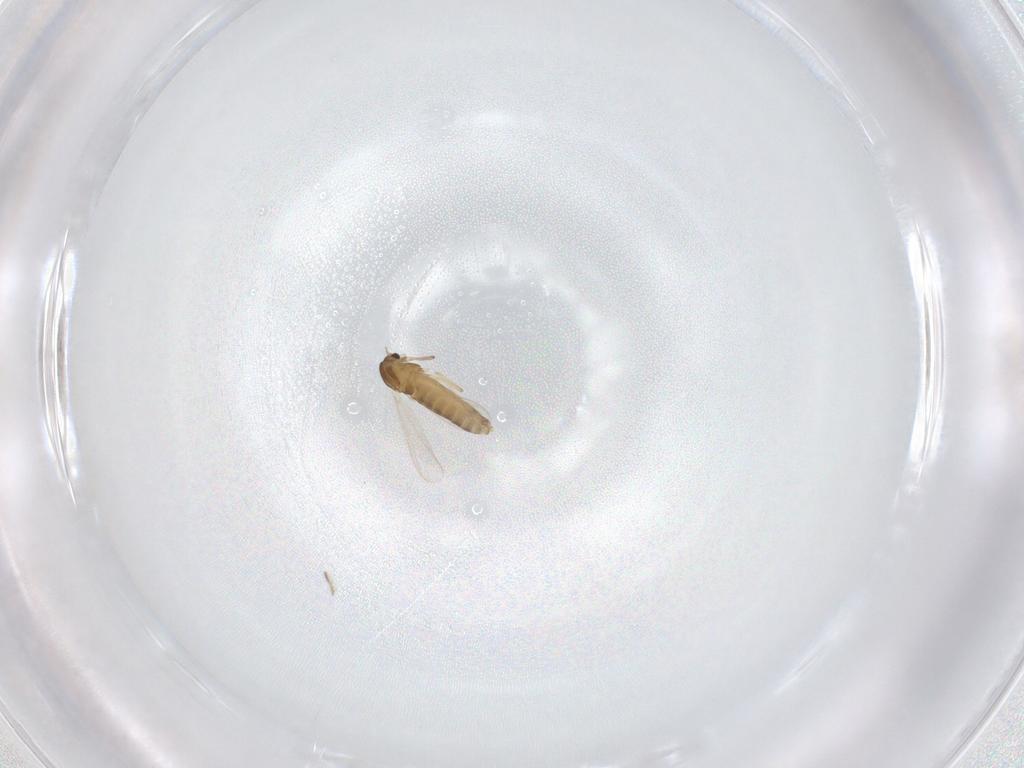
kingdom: Animalia
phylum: Arthropoda
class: Insecta
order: Diptera
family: Chironomidae
